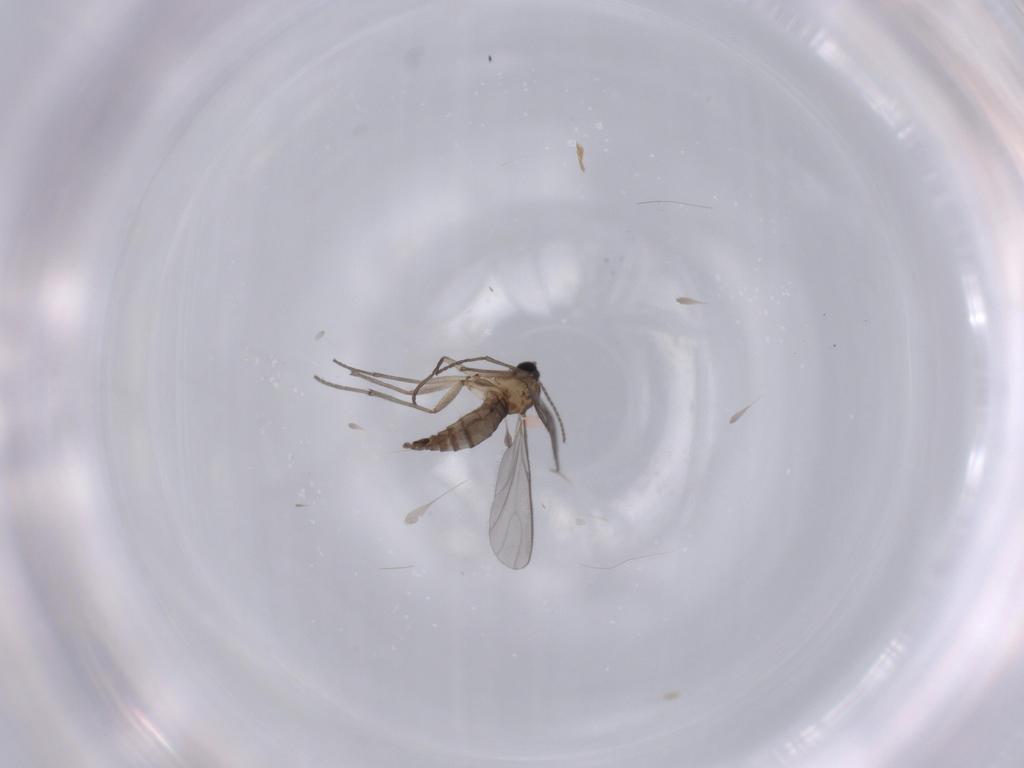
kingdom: Animalia
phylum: Arthropoda
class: Insecta
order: Diptera
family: Sciaridae
